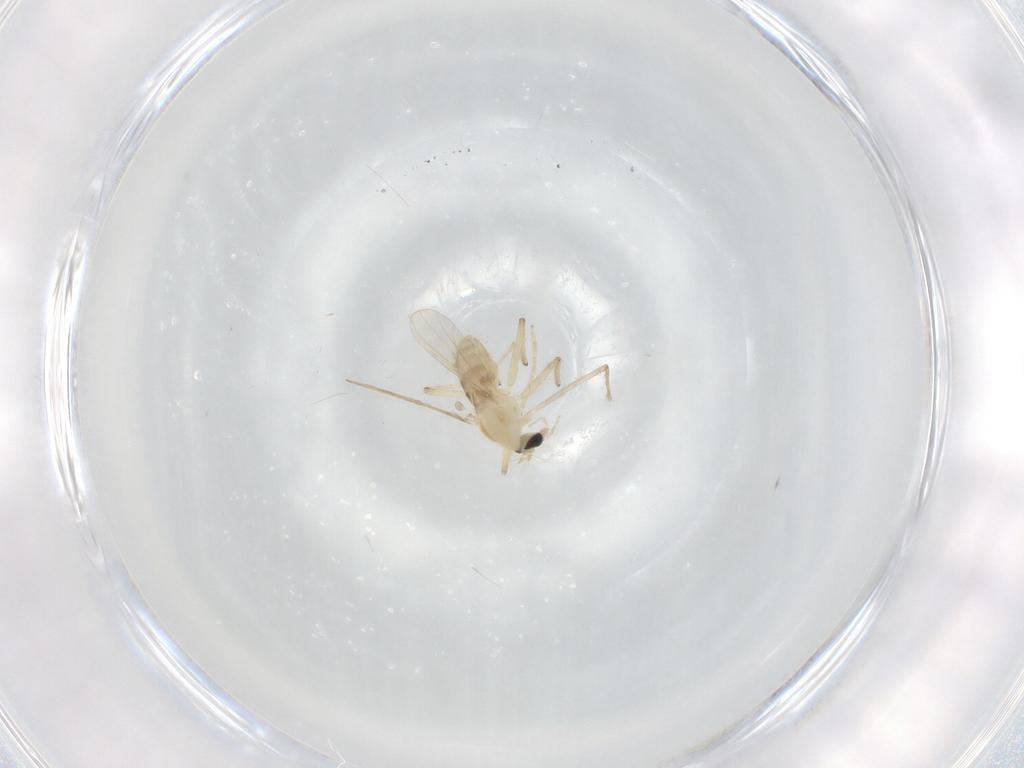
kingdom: Animalia
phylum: Arthropoda
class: Insecta
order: Diptera
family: Chironomidae
